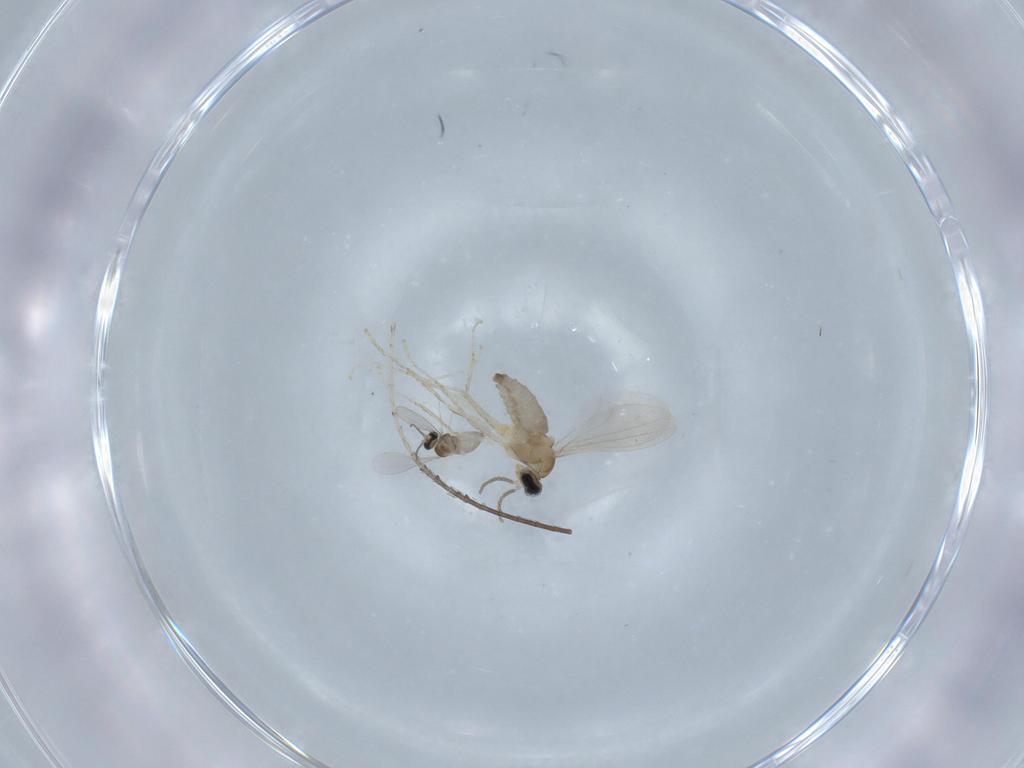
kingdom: Animalia
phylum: Arthropoda
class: Insecta
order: Diptera
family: Cecidomyiidae
